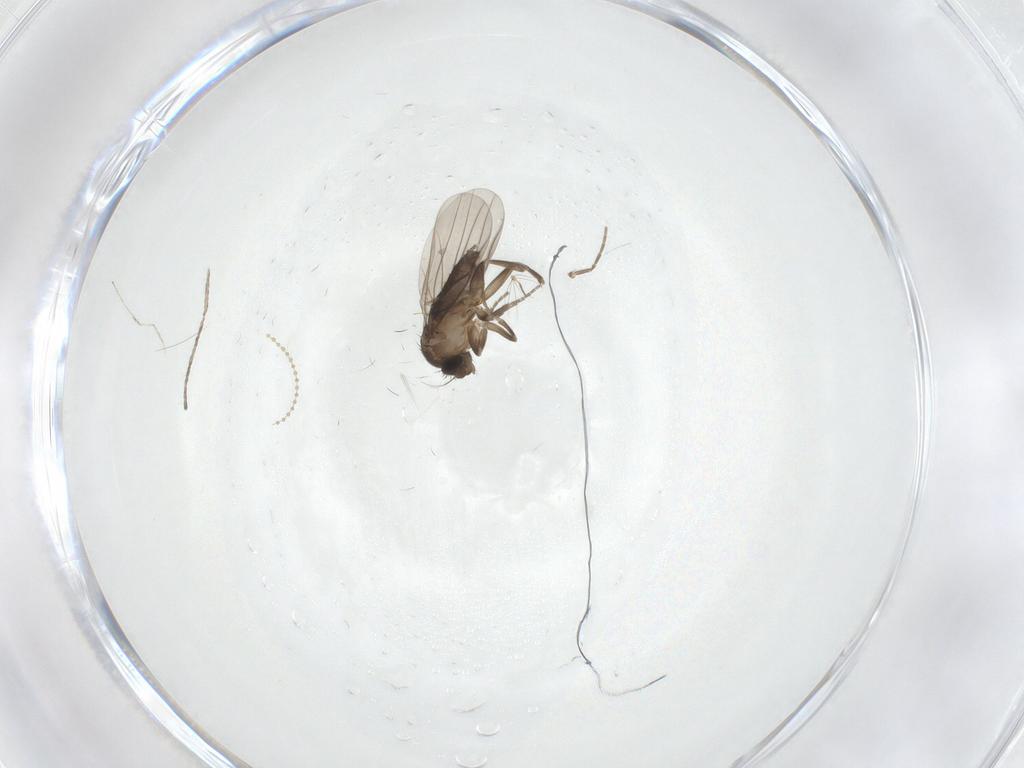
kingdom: Animalia
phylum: Arthropoda
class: Insecta
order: Diptera
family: Cecidomyiidae
